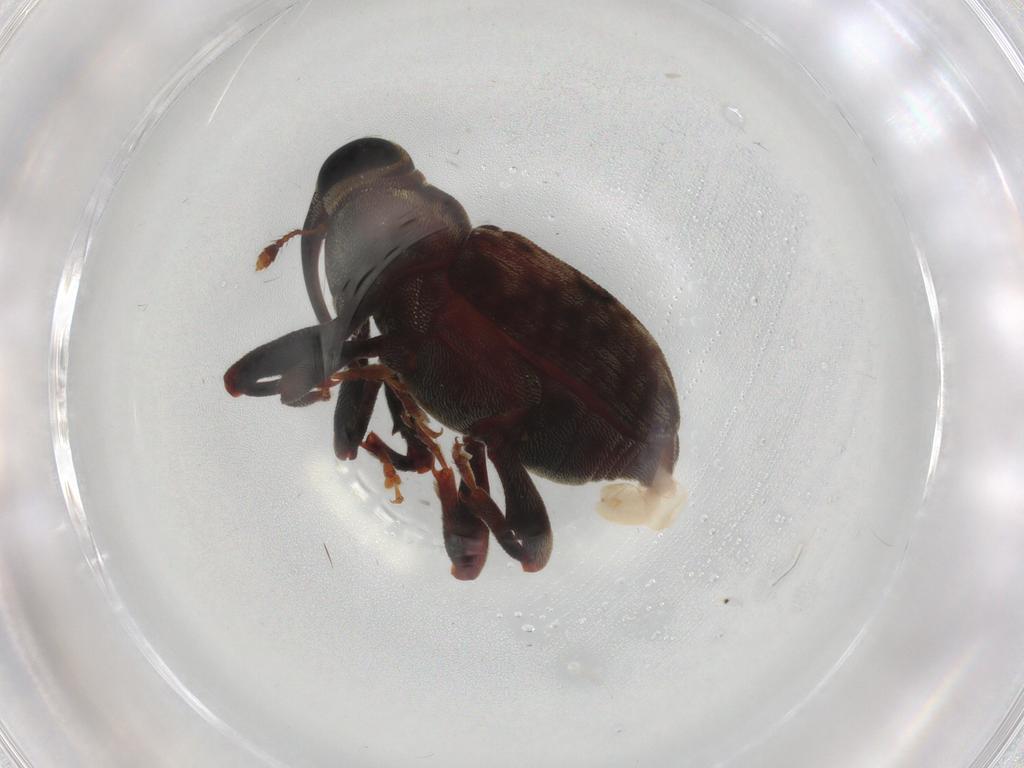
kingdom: Animalia
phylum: Arthropoda
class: Insecta
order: Coleoptera
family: Curculionidae
